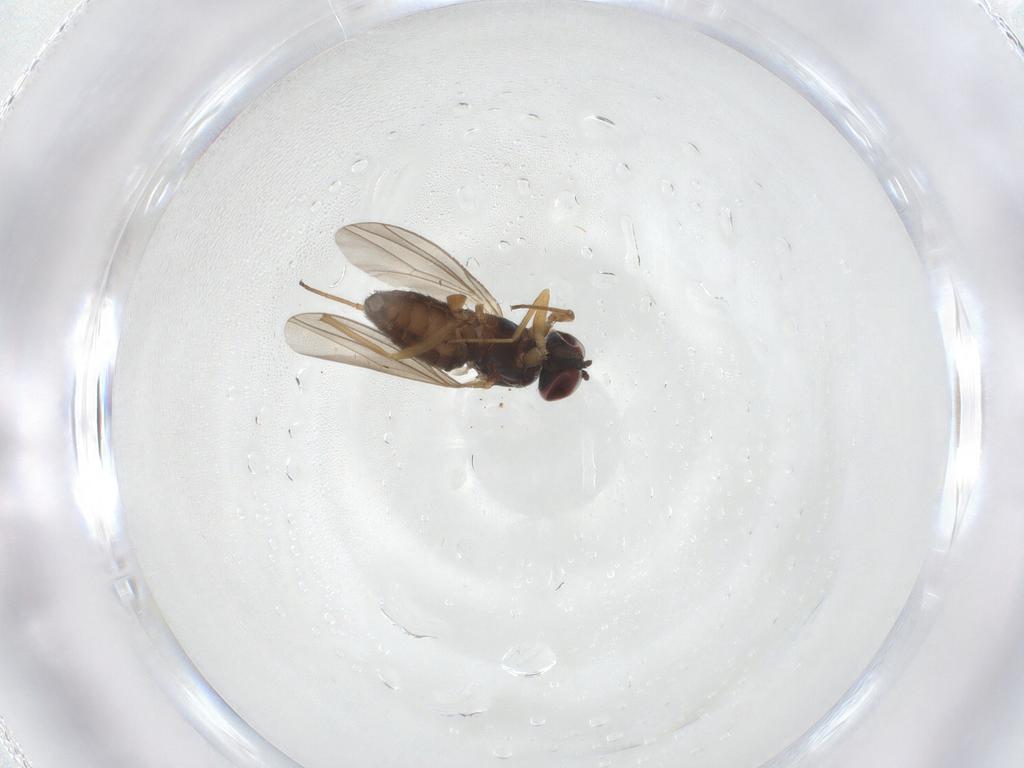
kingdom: Animalia
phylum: Arthropoda
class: Insecta
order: Diptera
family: Dolichopodidae
